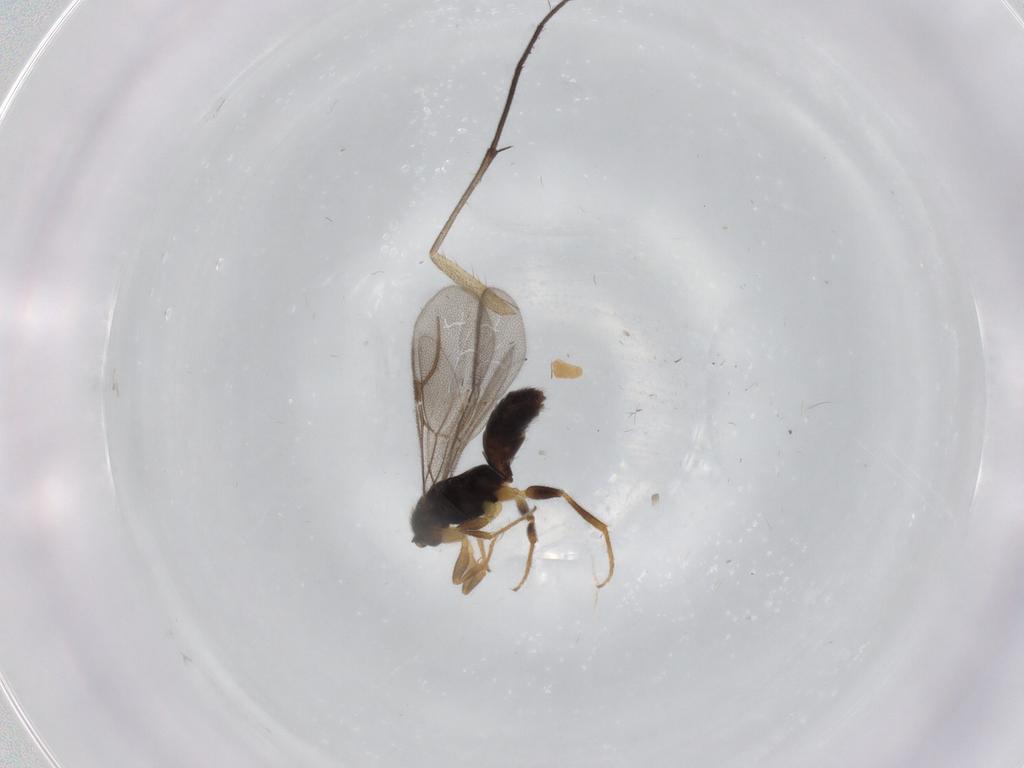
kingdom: Animalia
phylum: Arthropoda
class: Insecta
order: Hymenoptera
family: Bethylidae
